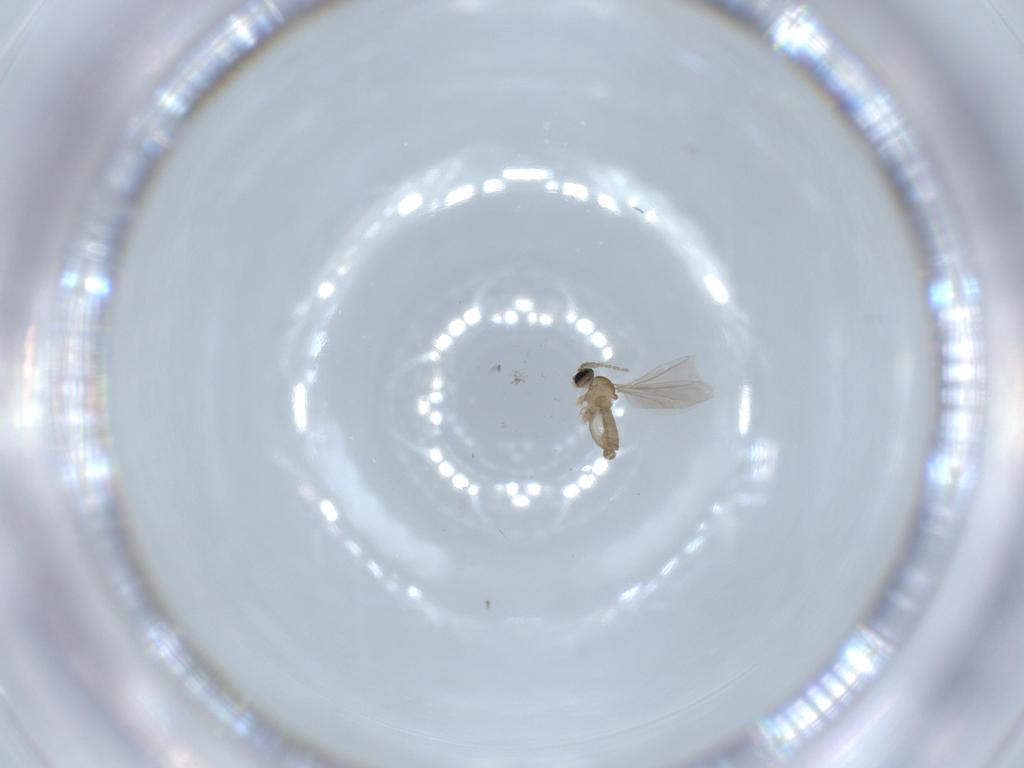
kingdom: Animalia
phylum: Arthropoda
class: Insecta
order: Diptera
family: Cecidomyiidae
